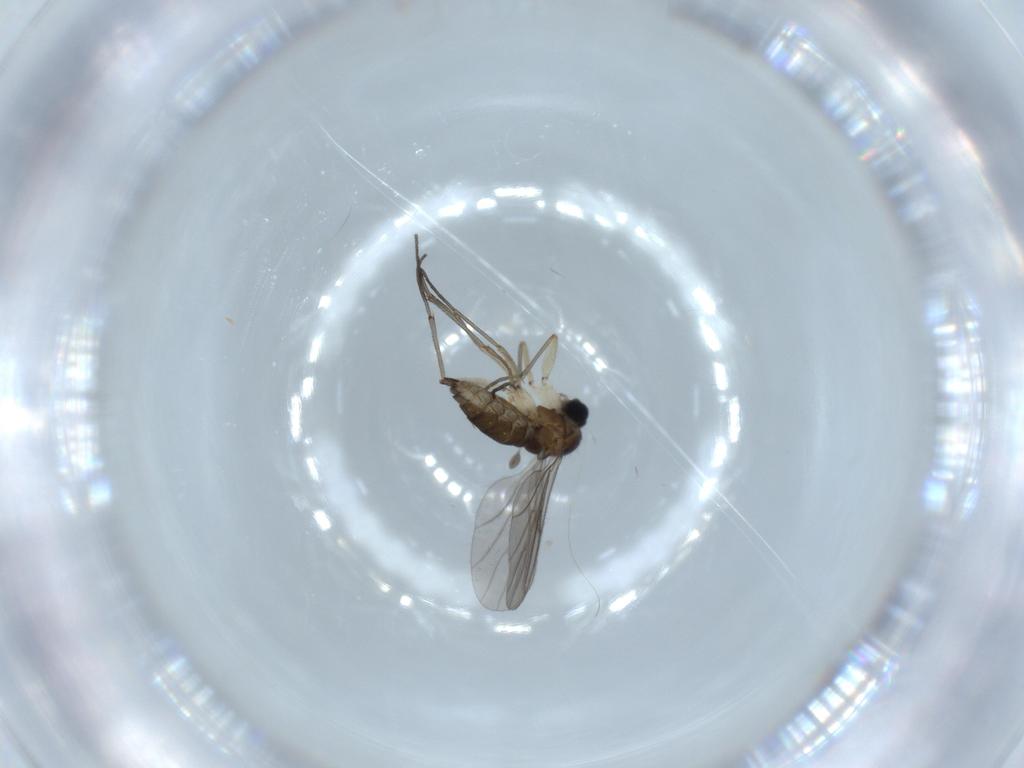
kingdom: Animalia
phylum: Arthropoda
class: Insecta
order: Diptera
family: Sciaridae
